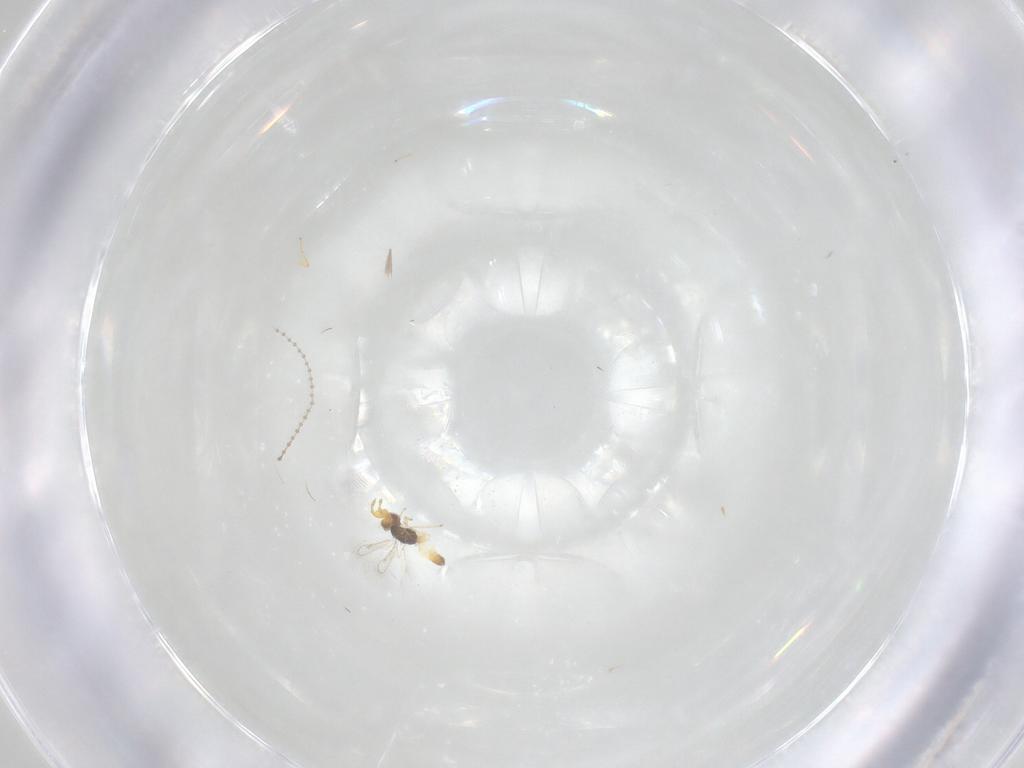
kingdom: Animalia
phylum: Arthropoda
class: Insecta
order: Diptera
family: Cecidomyiidae
